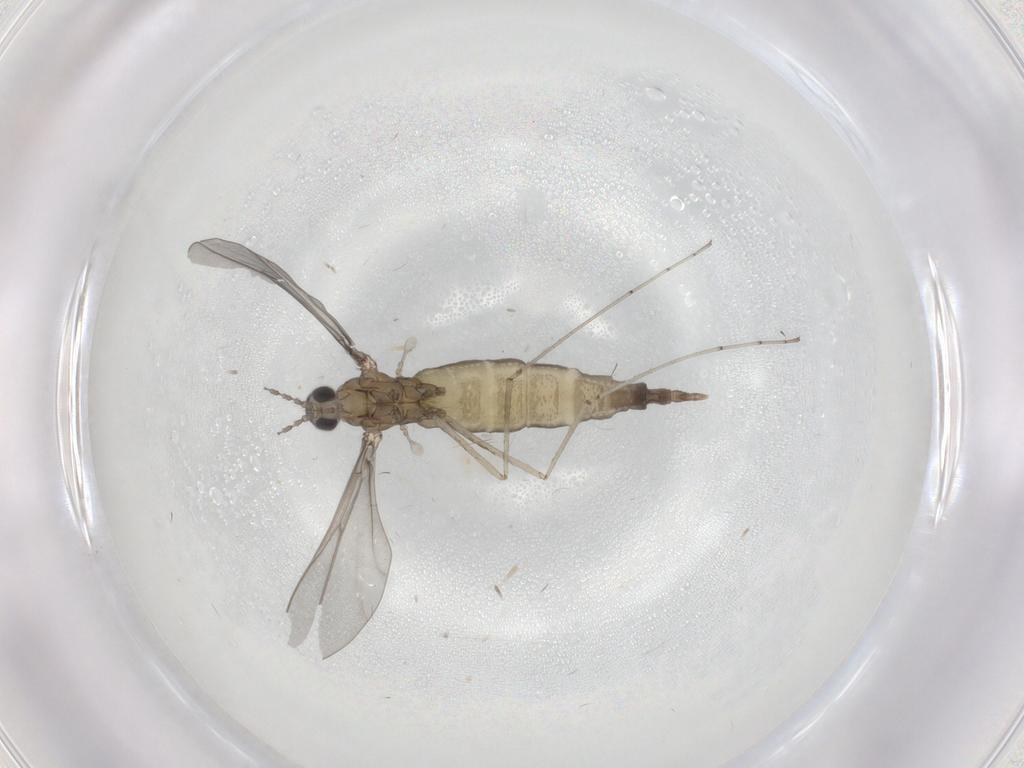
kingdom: Animalia
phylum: Arthropoda
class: Insecta
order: Diptera
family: Phoridae
